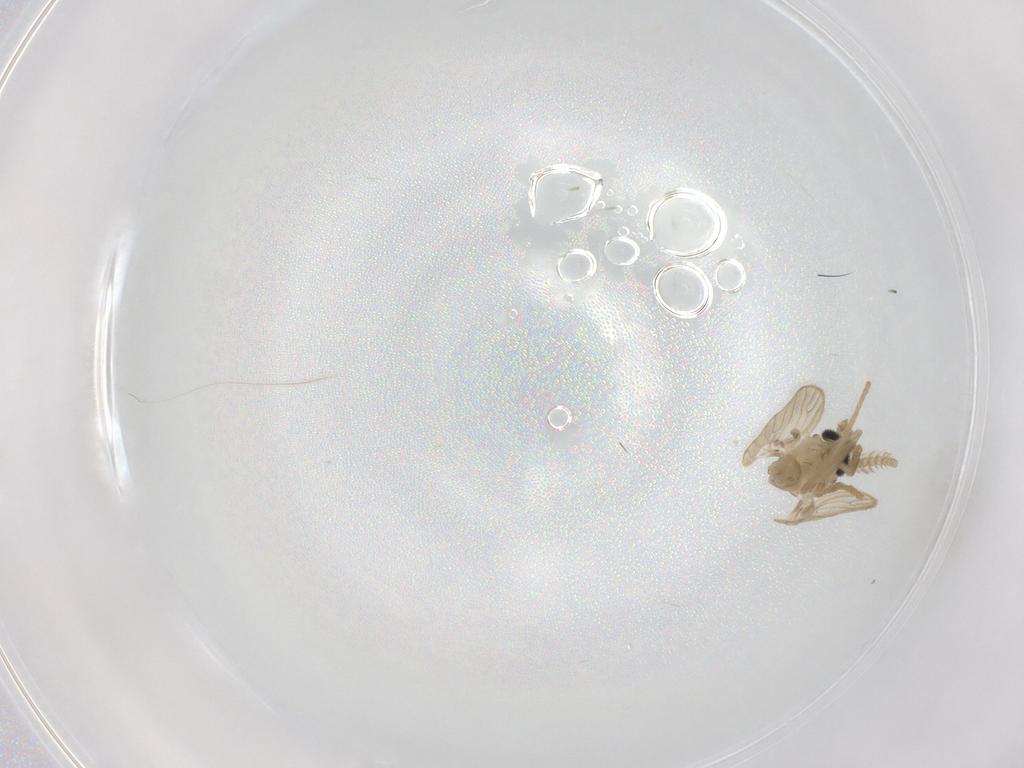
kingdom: Animalia
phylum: Arthropoda
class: Insecta
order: Diptera
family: Psychodidae
